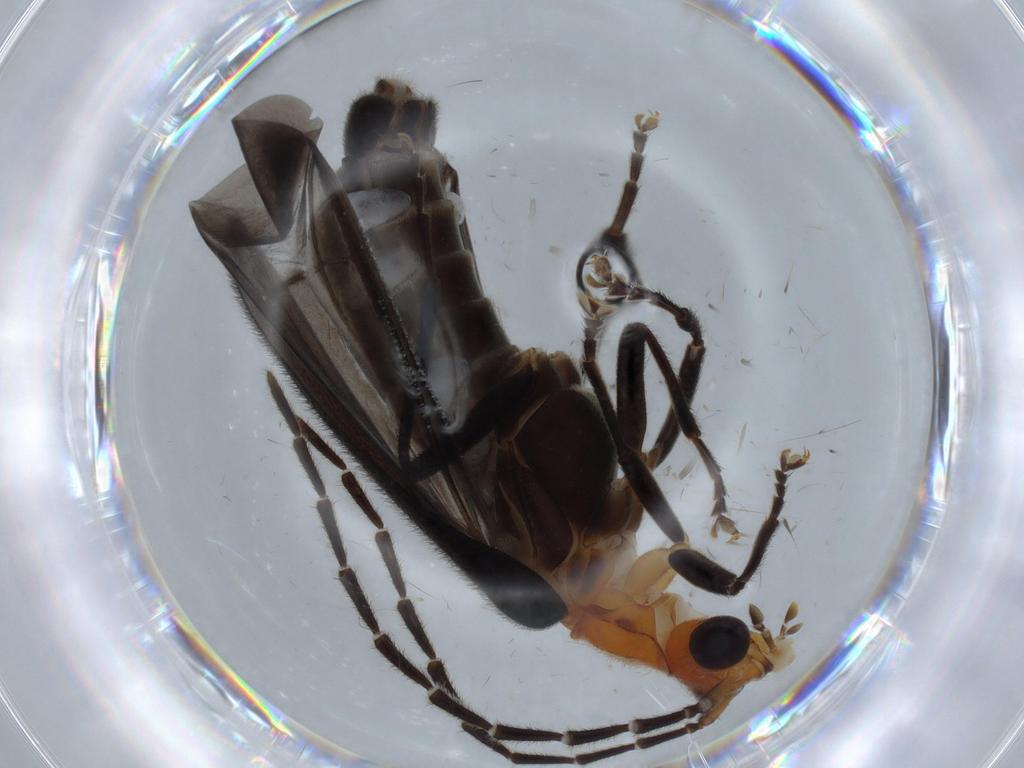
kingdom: Animalia
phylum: Arthropoda
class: Insecta
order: Coleoptera
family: Cantharidae
